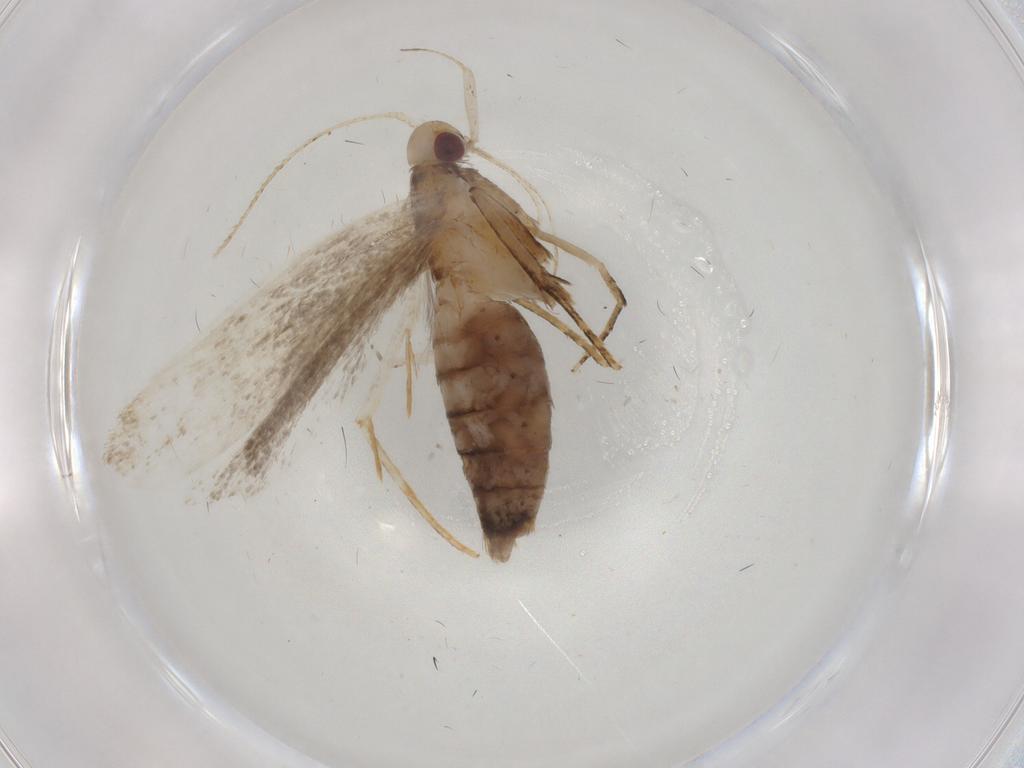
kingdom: Animalia
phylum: Arthropoda
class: Insecta
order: Lepidoptera
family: Gelechiidae
